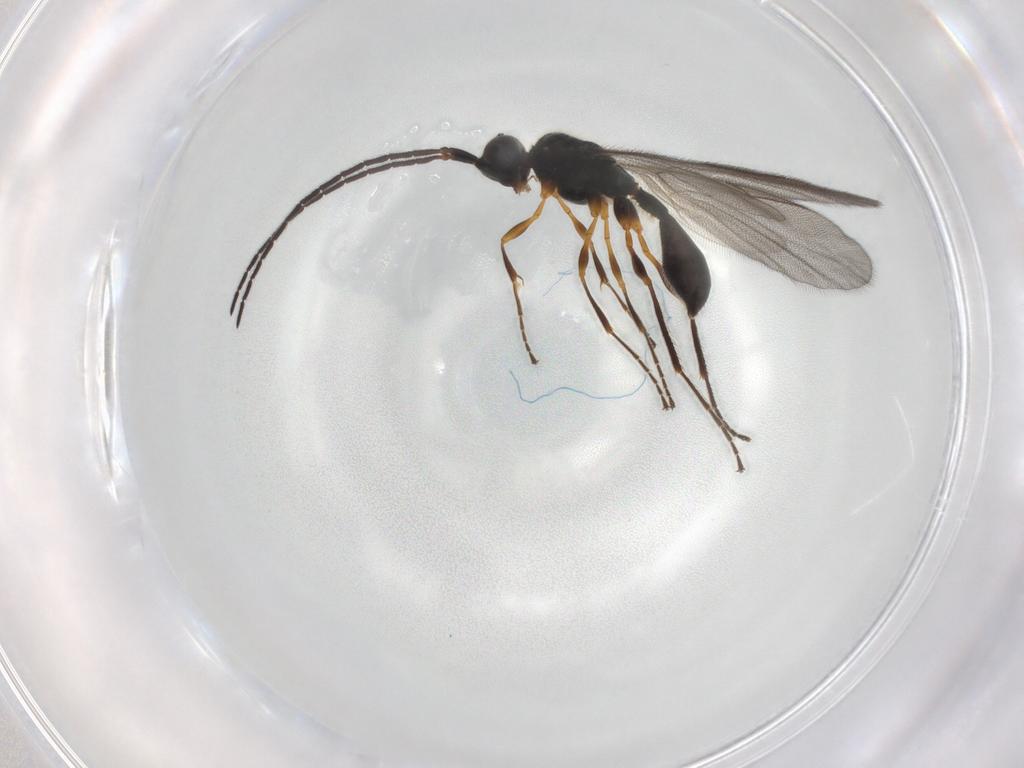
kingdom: Animalia
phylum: Arthropoda
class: Insecta
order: Hymenoptera
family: Diapriidae
